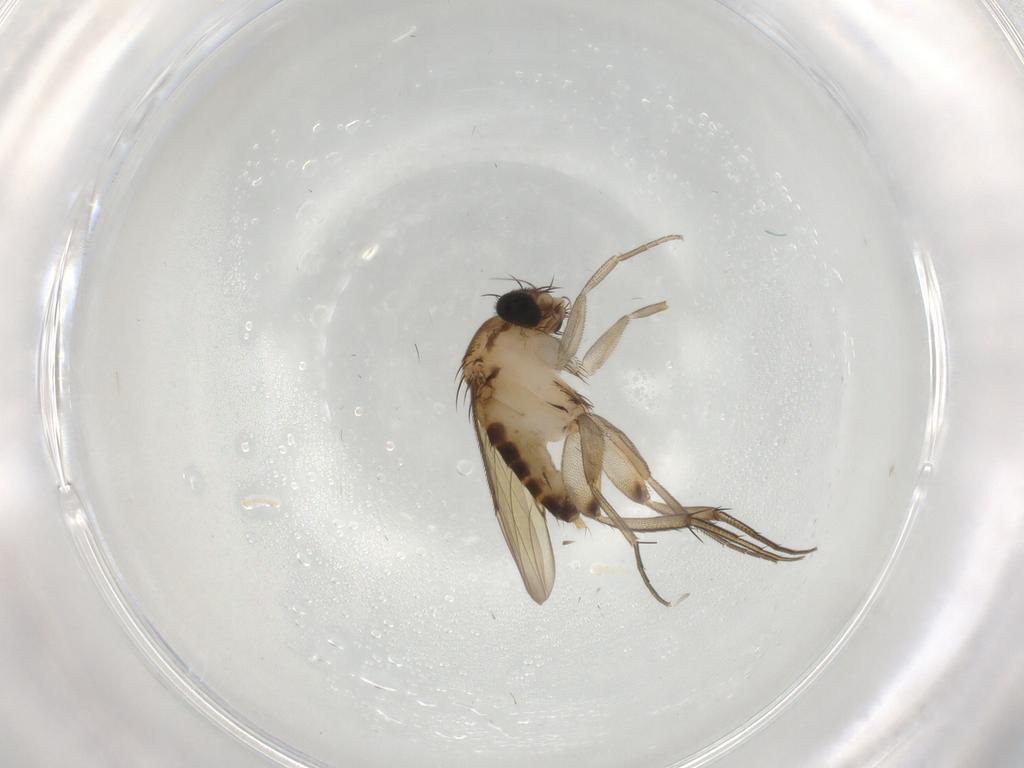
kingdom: Animalia
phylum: Arthropoda
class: Insecta
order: Diptera
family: Phoridae
